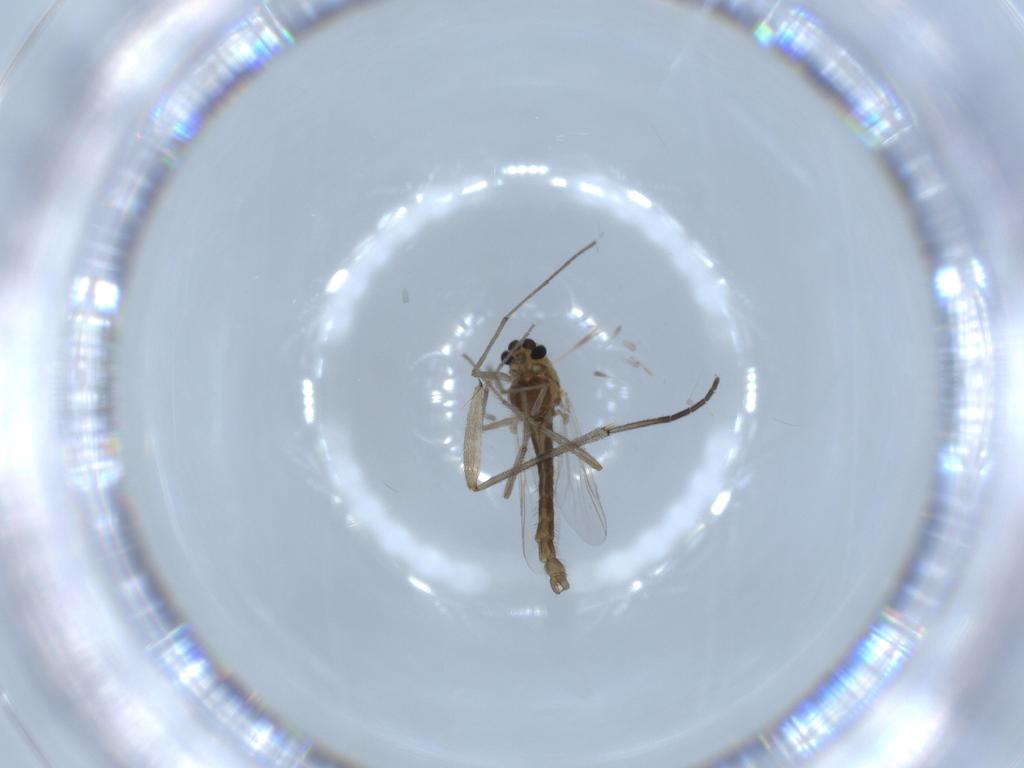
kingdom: Animalia
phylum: Arthropoda
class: Insecta
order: Diptera
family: Chironomidae
